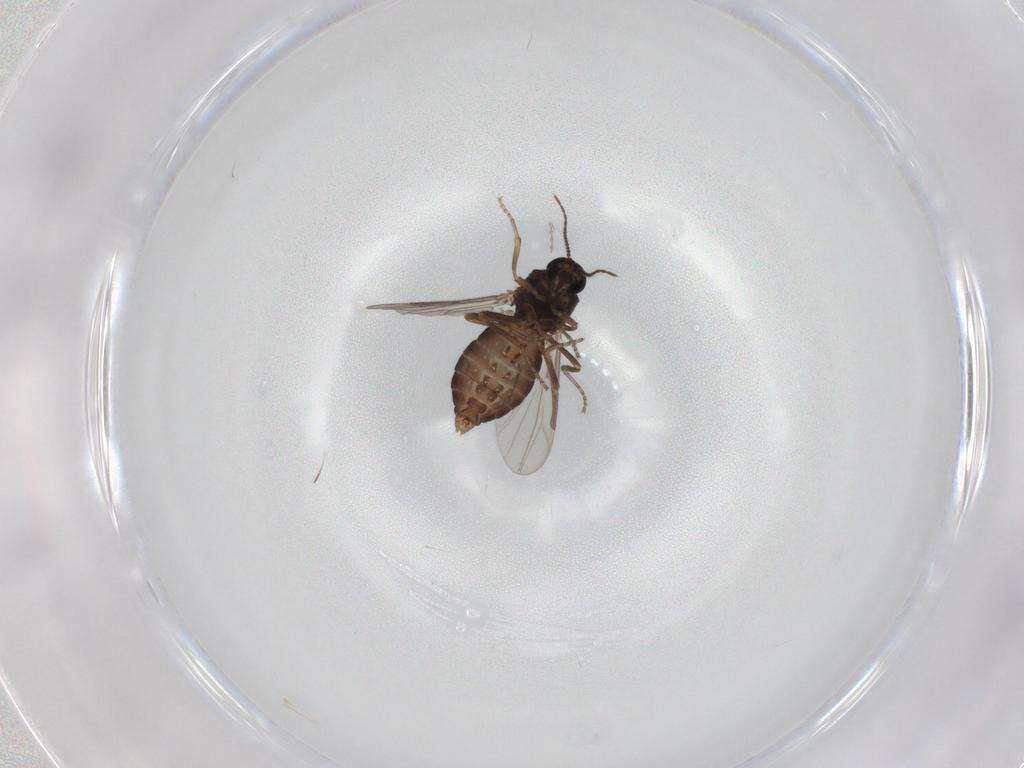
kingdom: Animalia
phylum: Arthropoda
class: Insecta
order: Diptera
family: Ceratopogonidae
